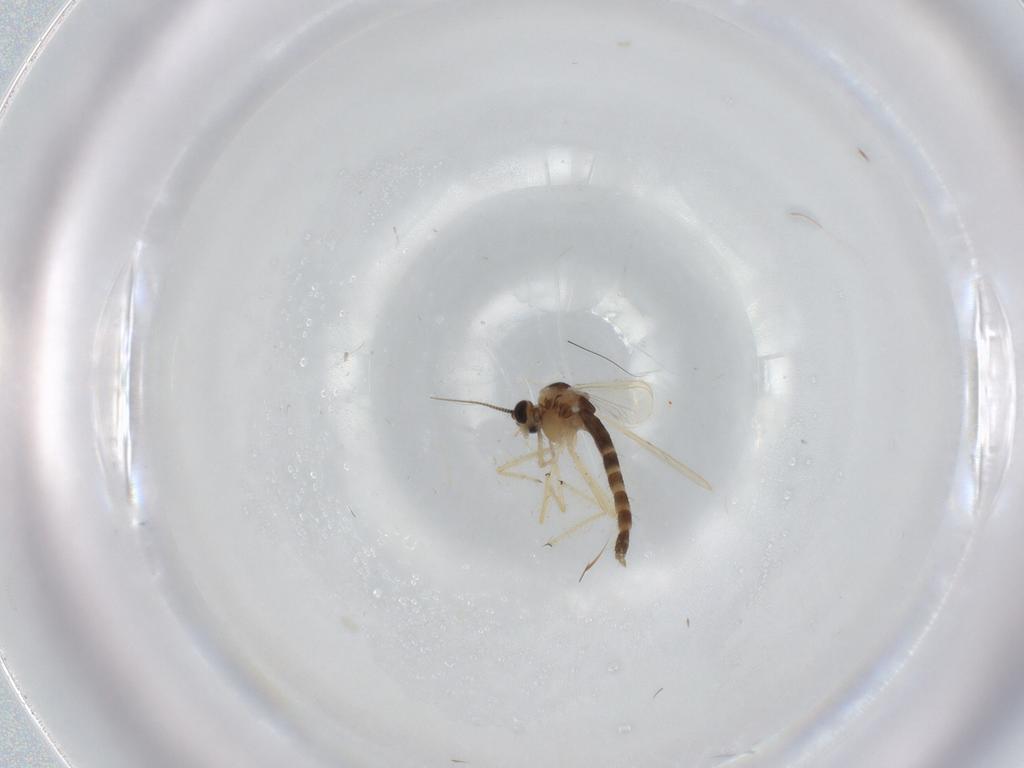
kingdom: Animalia
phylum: Arthropoda
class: Insecta
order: Diptera
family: Chironomidae
